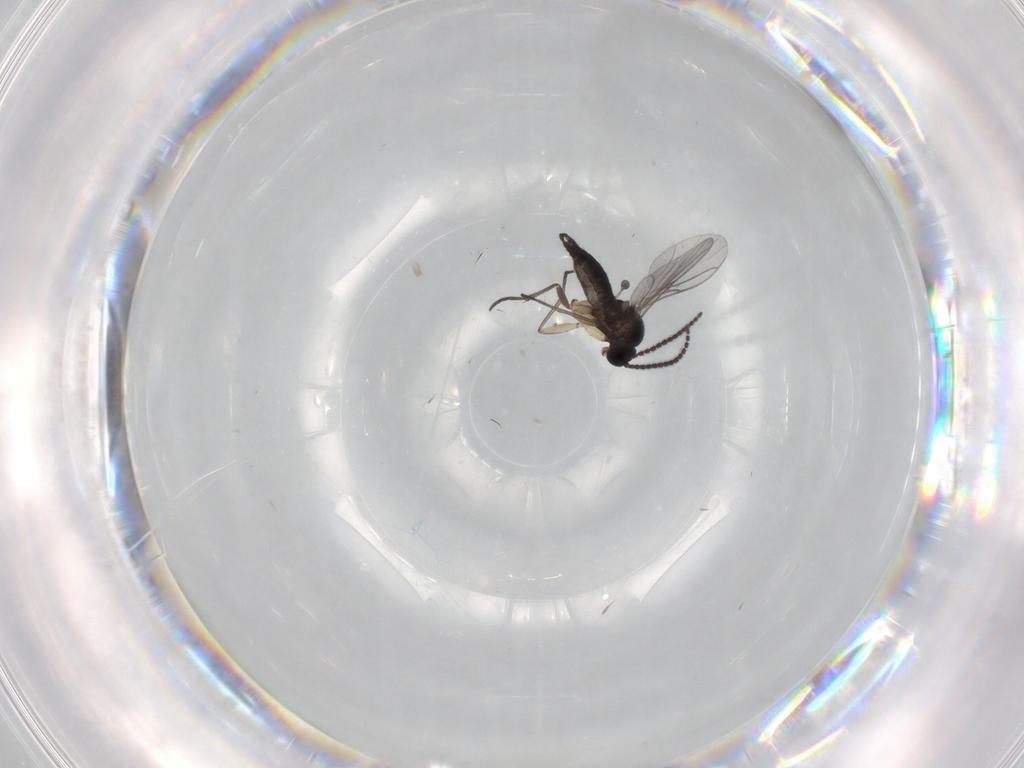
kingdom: Animalia
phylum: Arthropoda
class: Insecta
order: Diptera
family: Sciaridae
